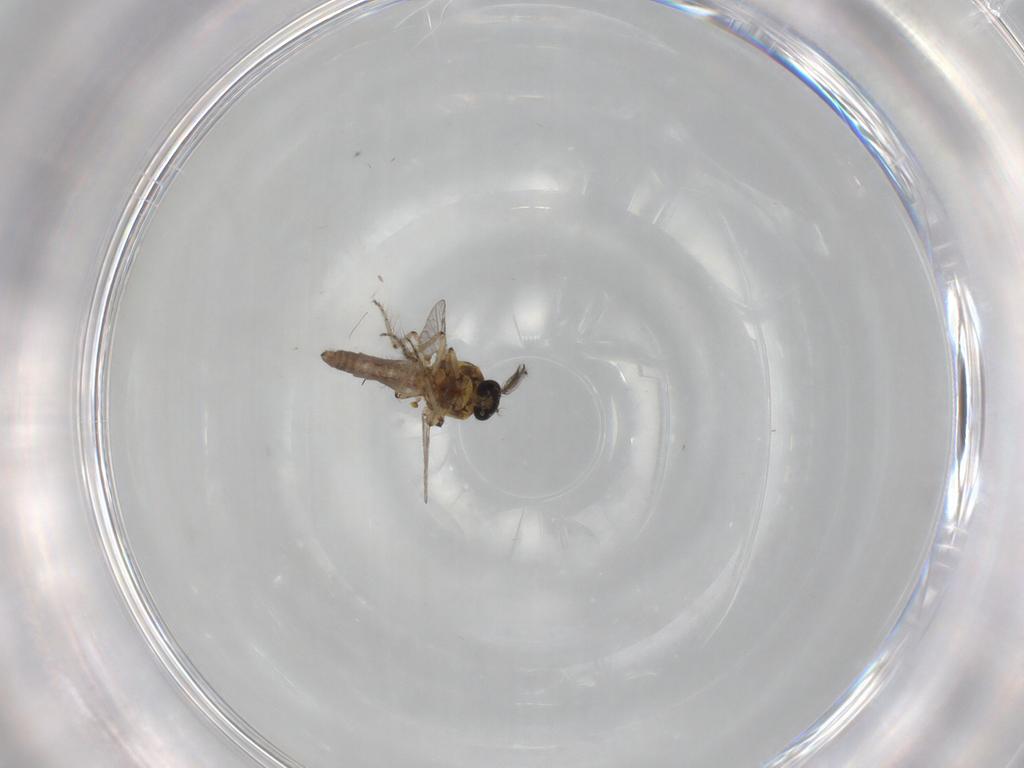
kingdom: Animalia
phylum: Arthropoda
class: Insecta
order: Diptera
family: Ceratopogonidae
